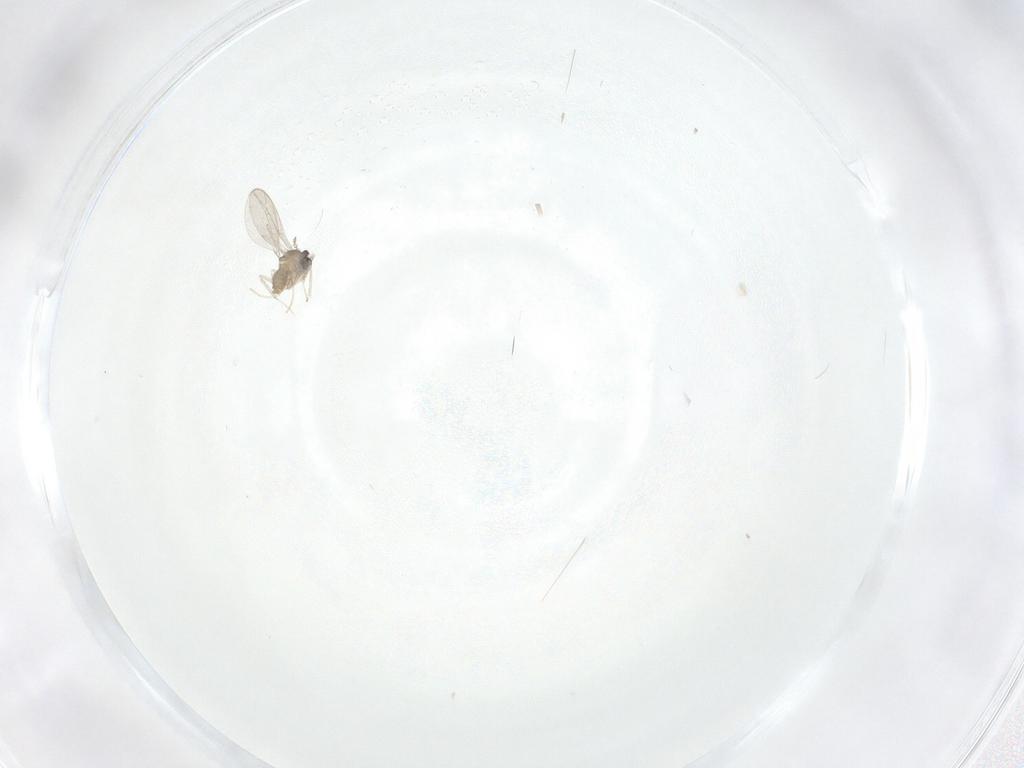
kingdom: Animalia
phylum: Arthropoda
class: Insecta
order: Diptera
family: Cecidomyiidae
